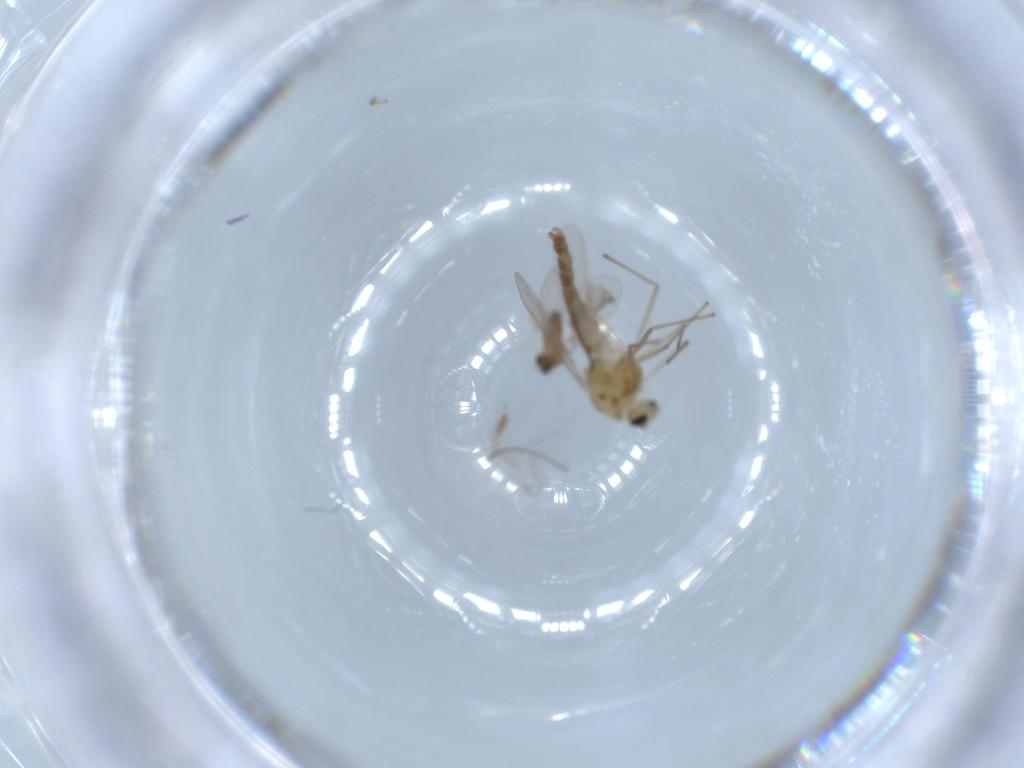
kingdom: Animalia
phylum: Arthropoda
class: Insecta
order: Diptera
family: Chironomidae
